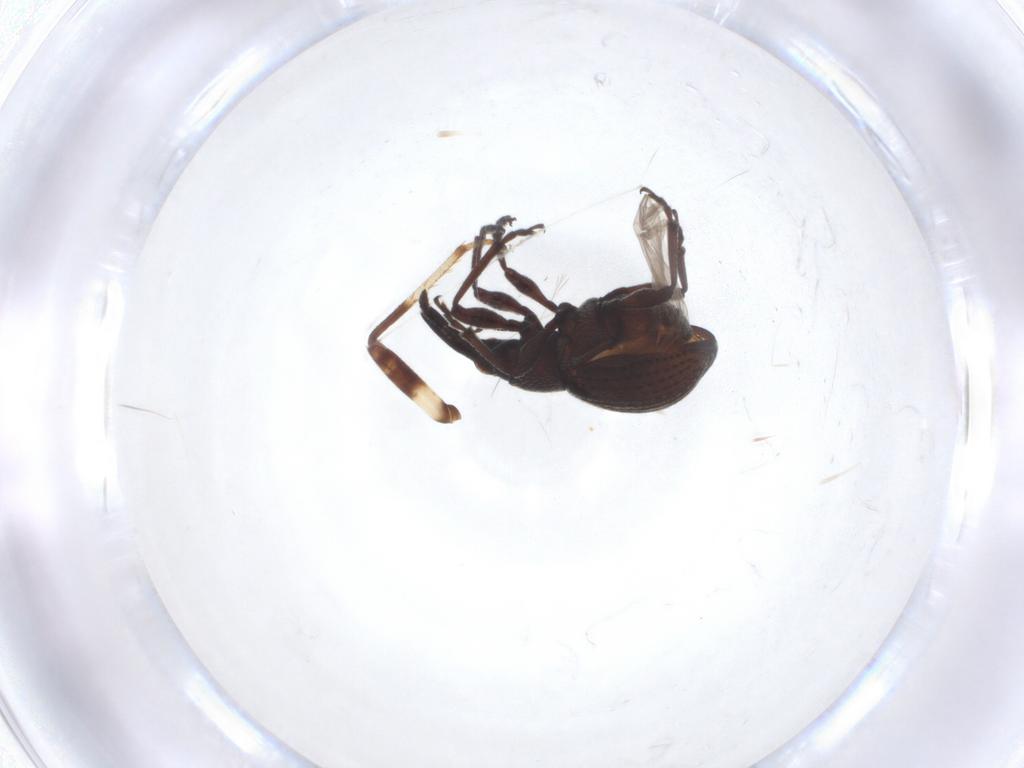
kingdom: Animalia
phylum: Arthropoda
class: Insecta
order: Coleoptera
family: Brentidae
